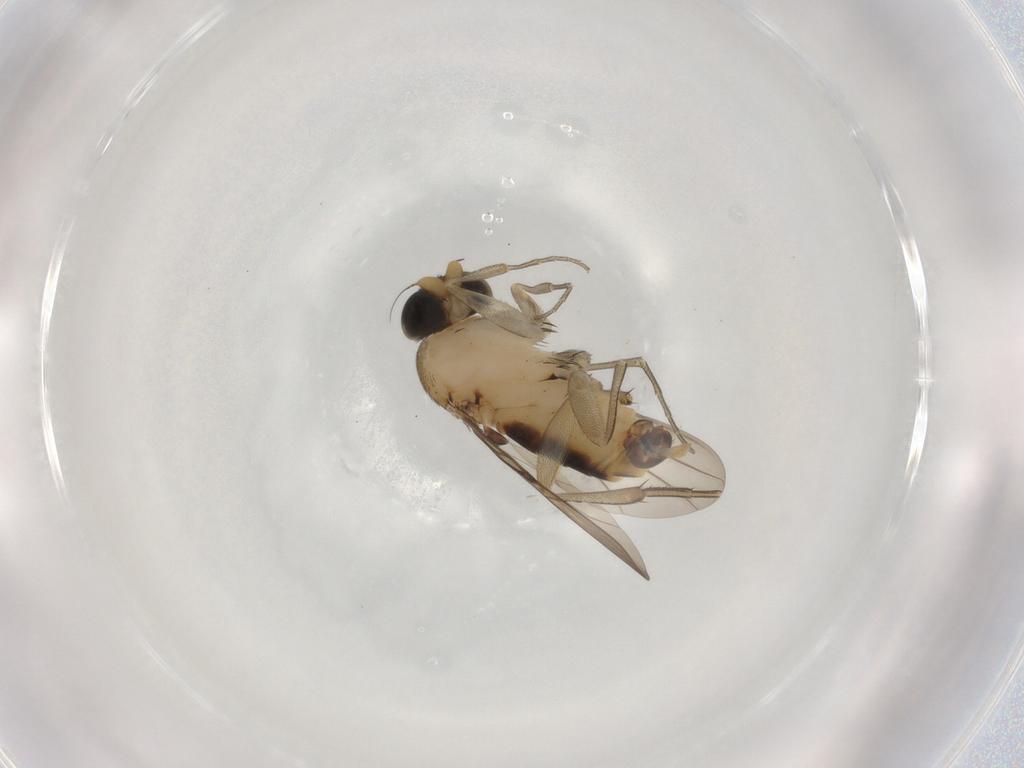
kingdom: Animalia
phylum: Arthropoda
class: Insecta
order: Diptera
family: Phoridae
